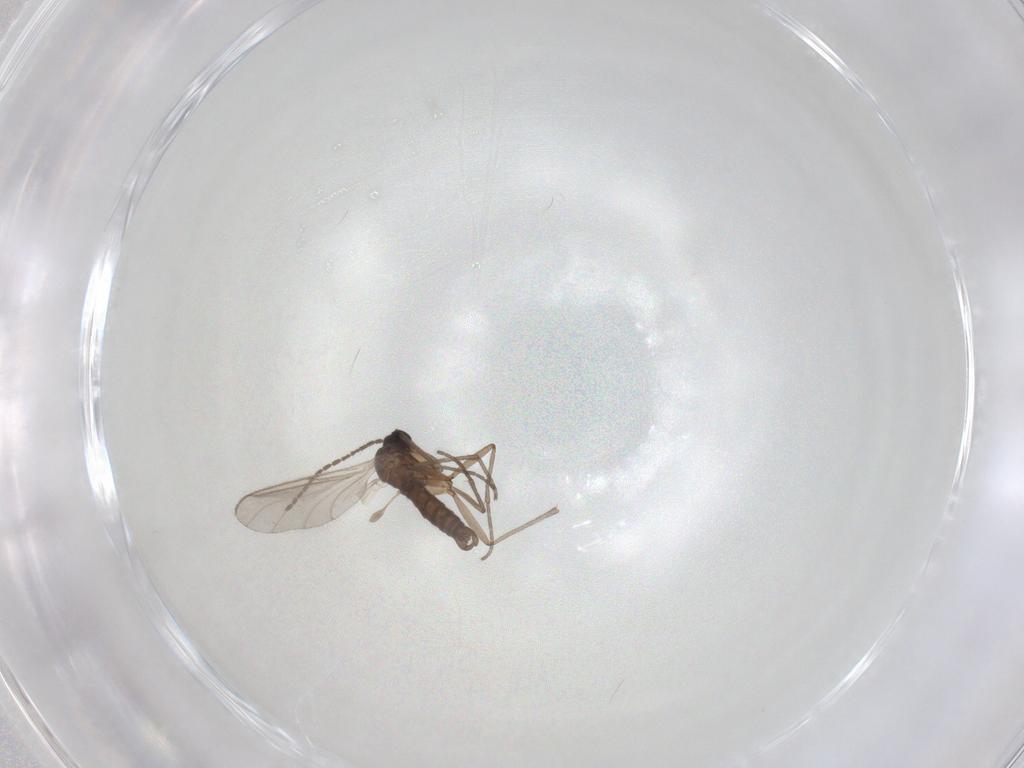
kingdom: Animalia
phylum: Arthropoda
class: Insecta
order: Diptera
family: Sciaridae
